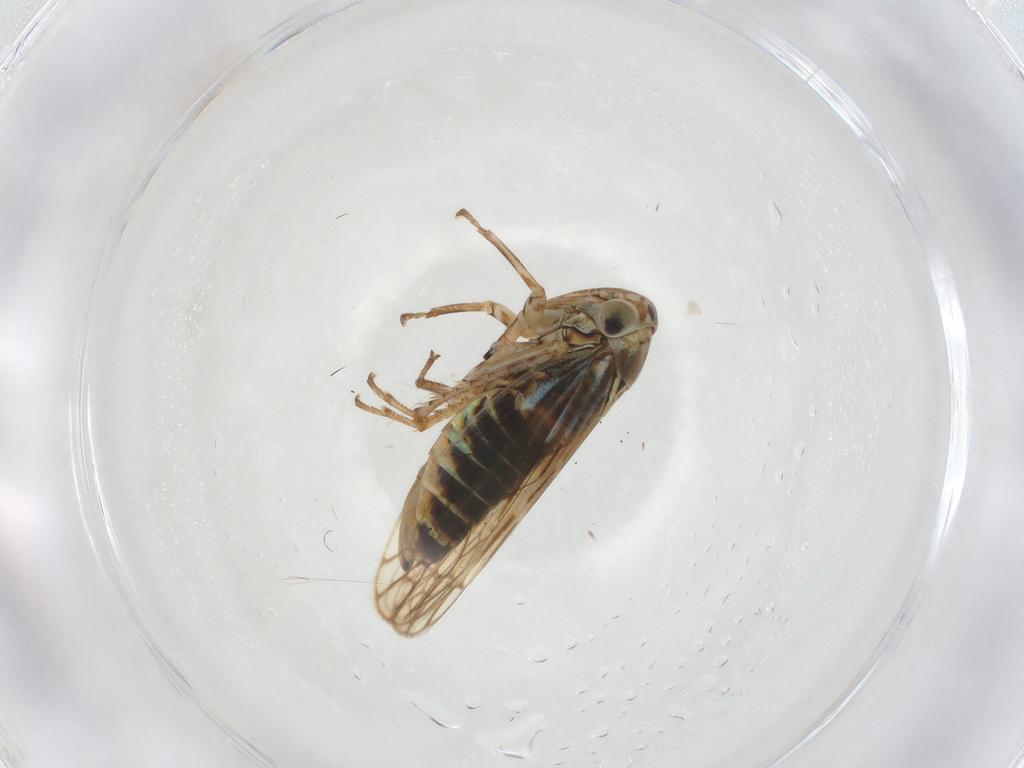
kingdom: Animalia
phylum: Arthropoda
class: Insecta
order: Hemiptera
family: Cicadellidae
